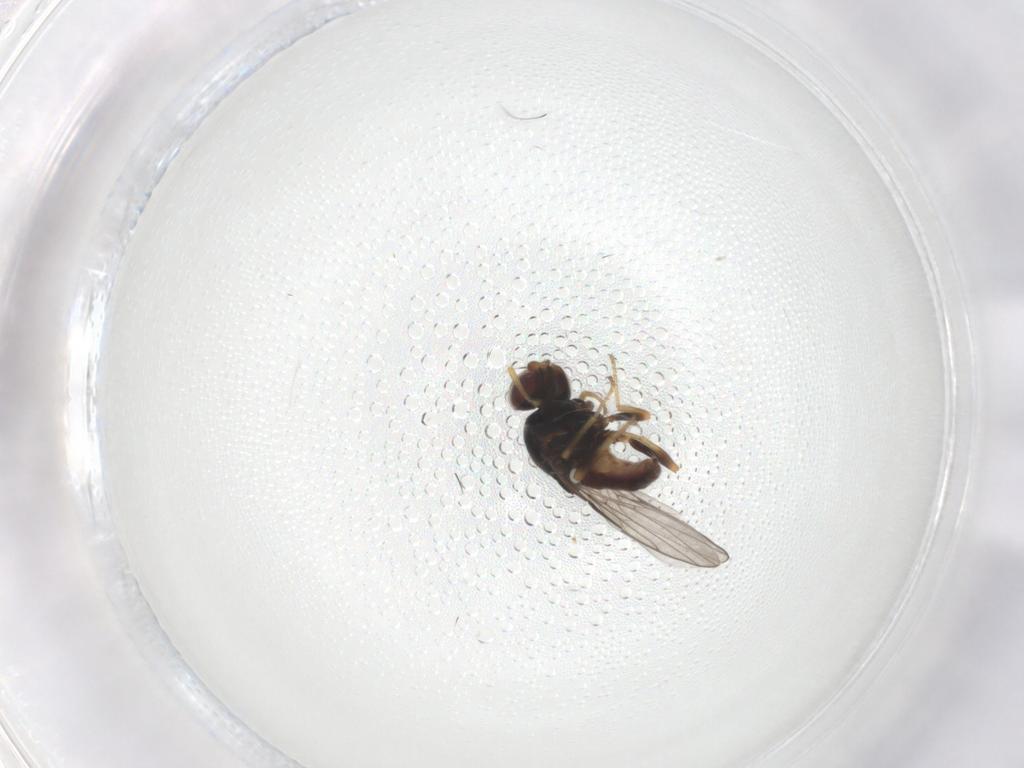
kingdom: Animalia
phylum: Arthropoda
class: Insecta
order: Diptera
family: Chloropidae
